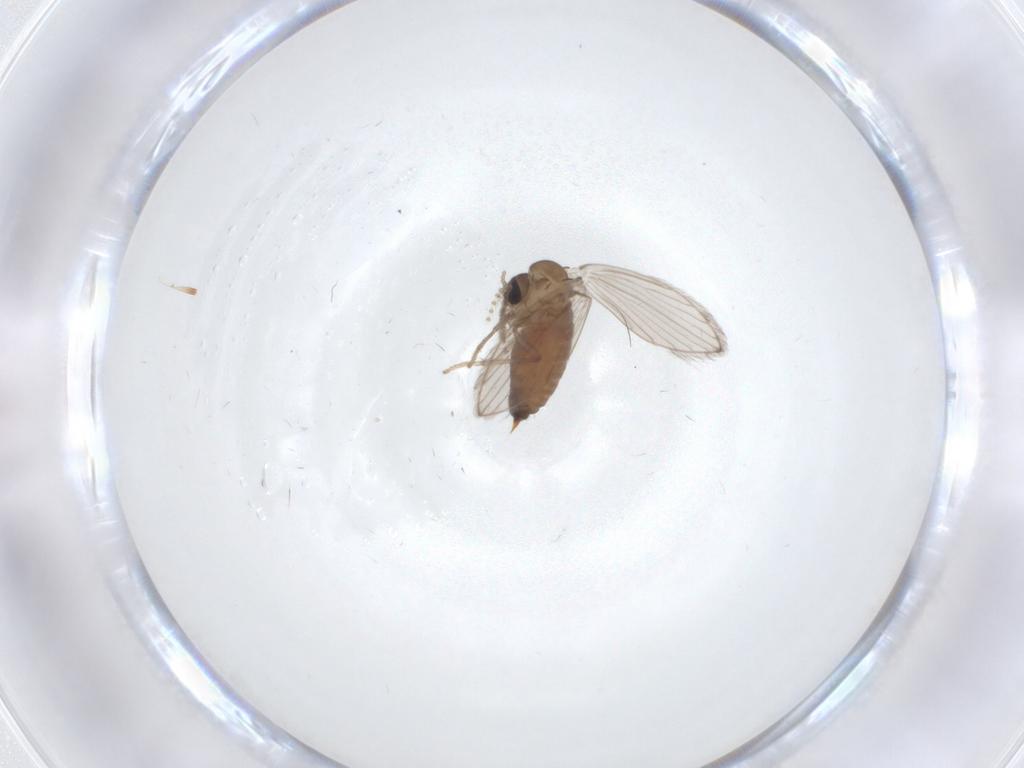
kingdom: Animalia
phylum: Arthropoda
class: Insecta
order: Diptera
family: Psychodidae
